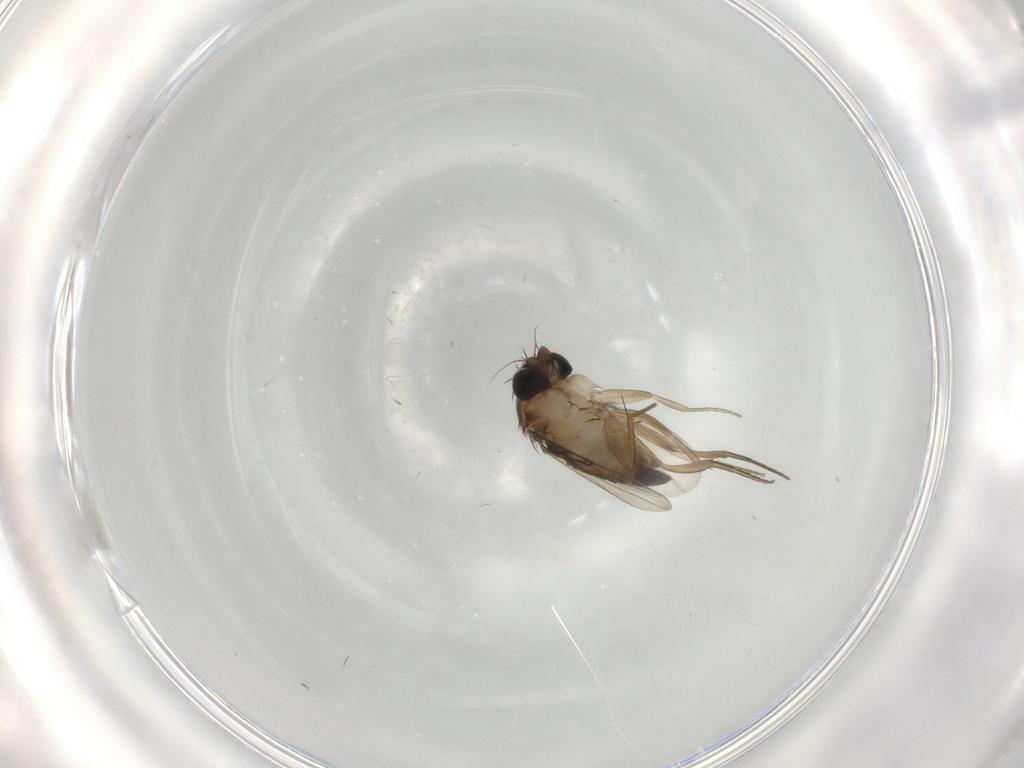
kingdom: Animalia
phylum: Arthropoda
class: Insecta
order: Diptera
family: Phoridae
